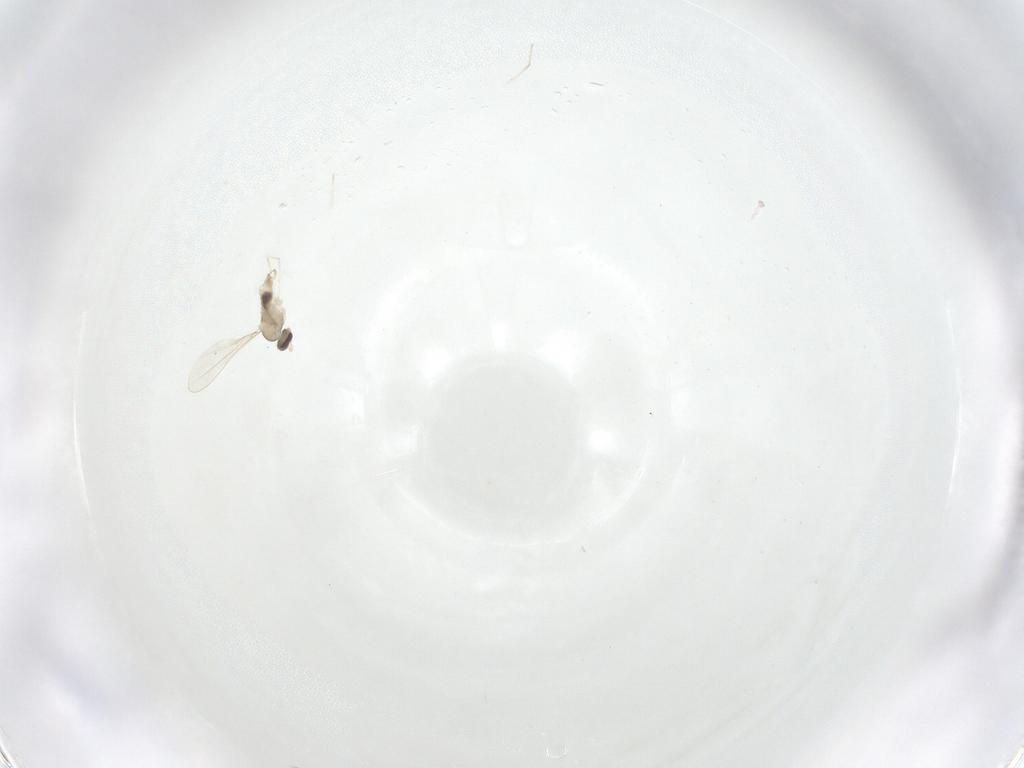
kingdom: Animalia
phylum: Arthropoda
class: Insecta
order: Diptera
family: Cecidomyiidae
